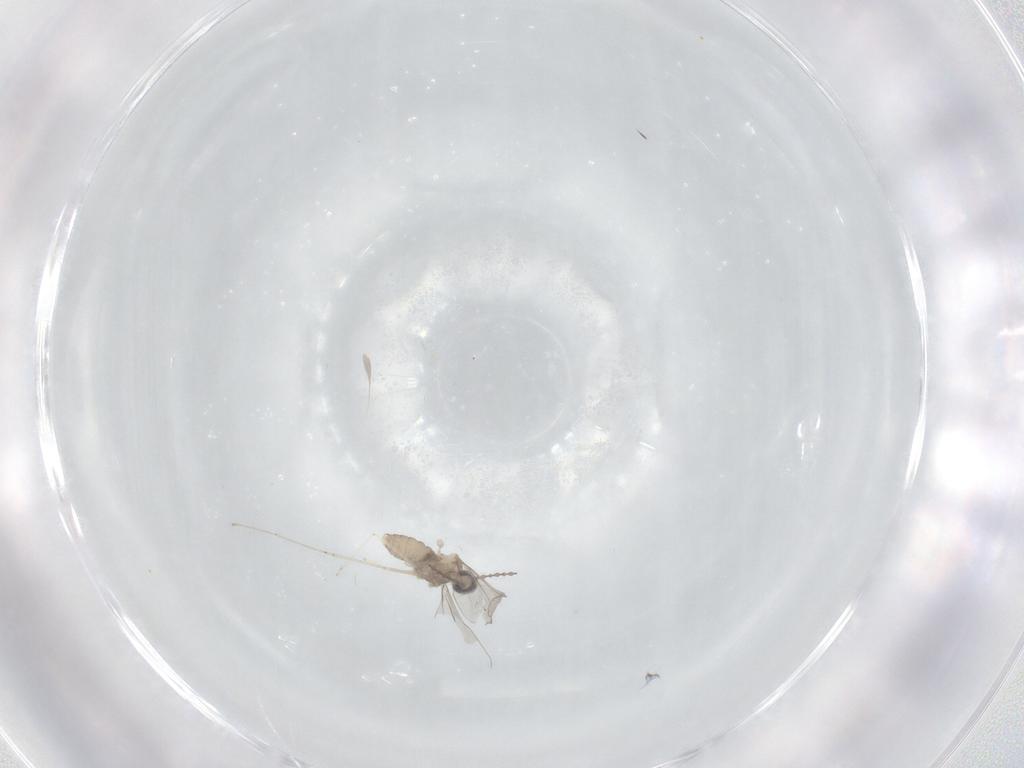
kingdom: Animalia
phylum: Arthropoda
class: Insecta
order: Diptera
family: Cecidomyiidae
